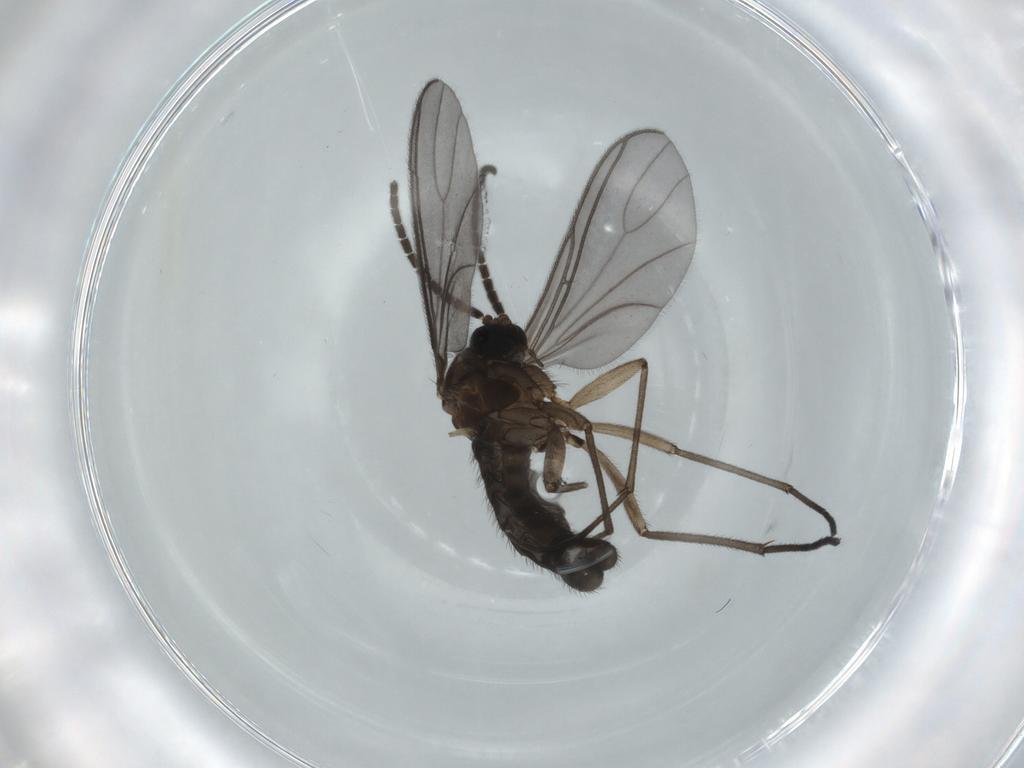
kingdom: Animalia
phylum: Arthropoda
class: Insecta
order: Diptera
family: Sciaridae
